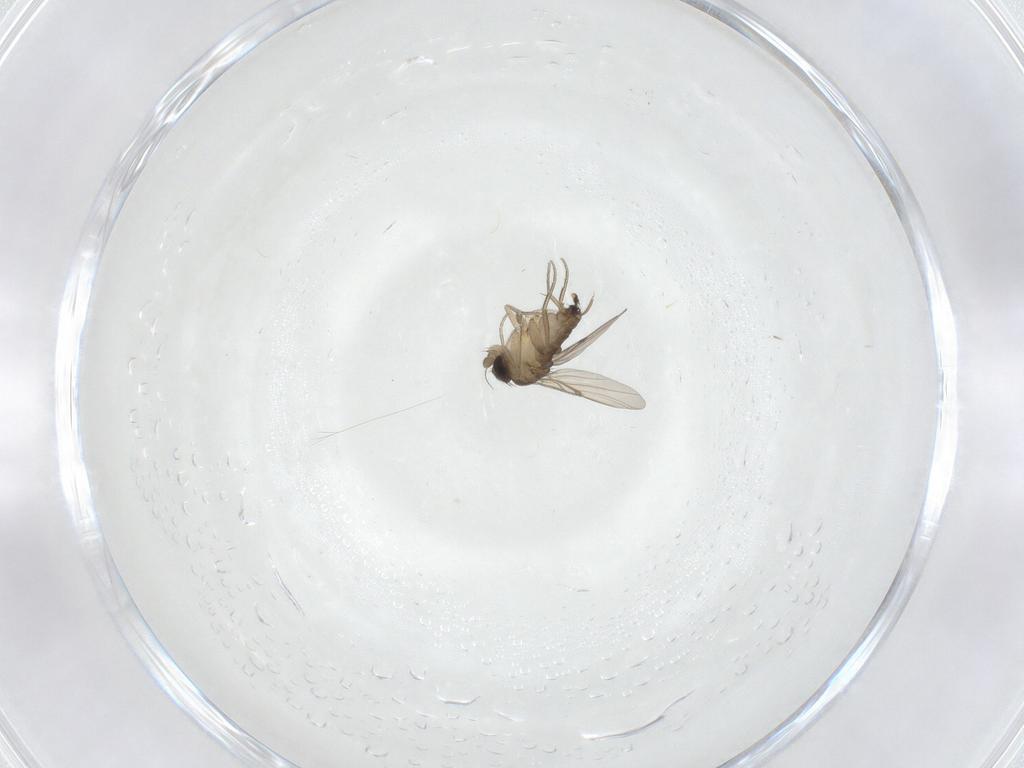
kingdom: Animalia
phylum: Arthropoda
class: Insecta
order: Diptera
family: Phoridae
